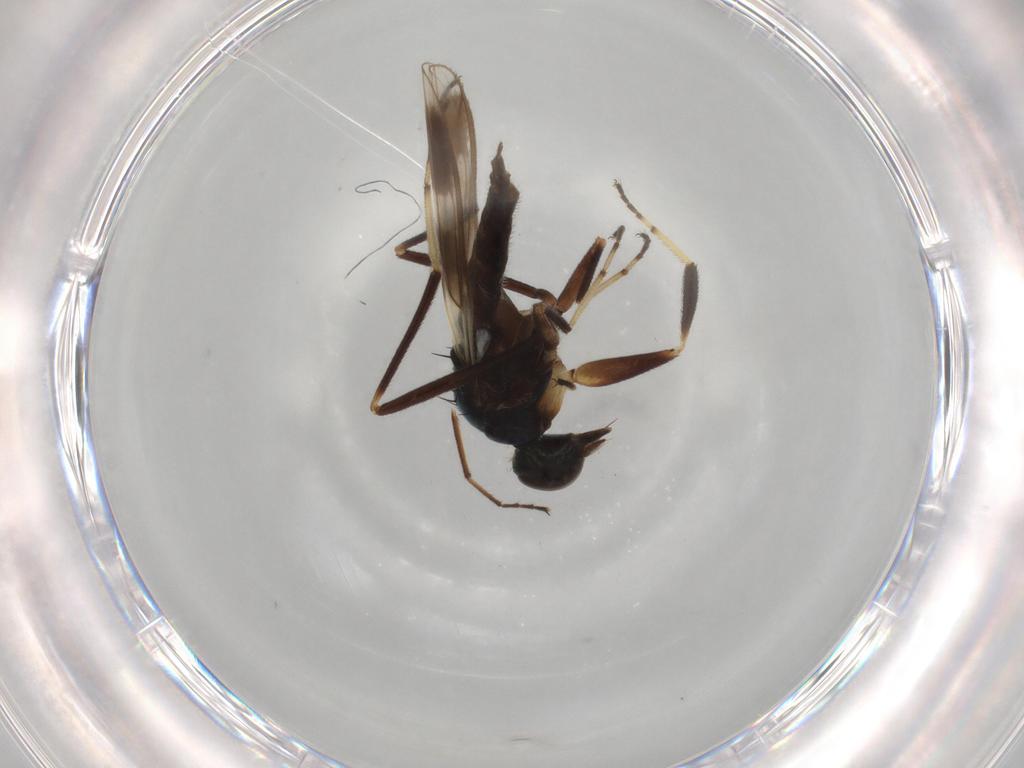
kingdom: Animalia
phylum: Arthropoda
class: Insecta
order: Diptera
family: Hybotidae
